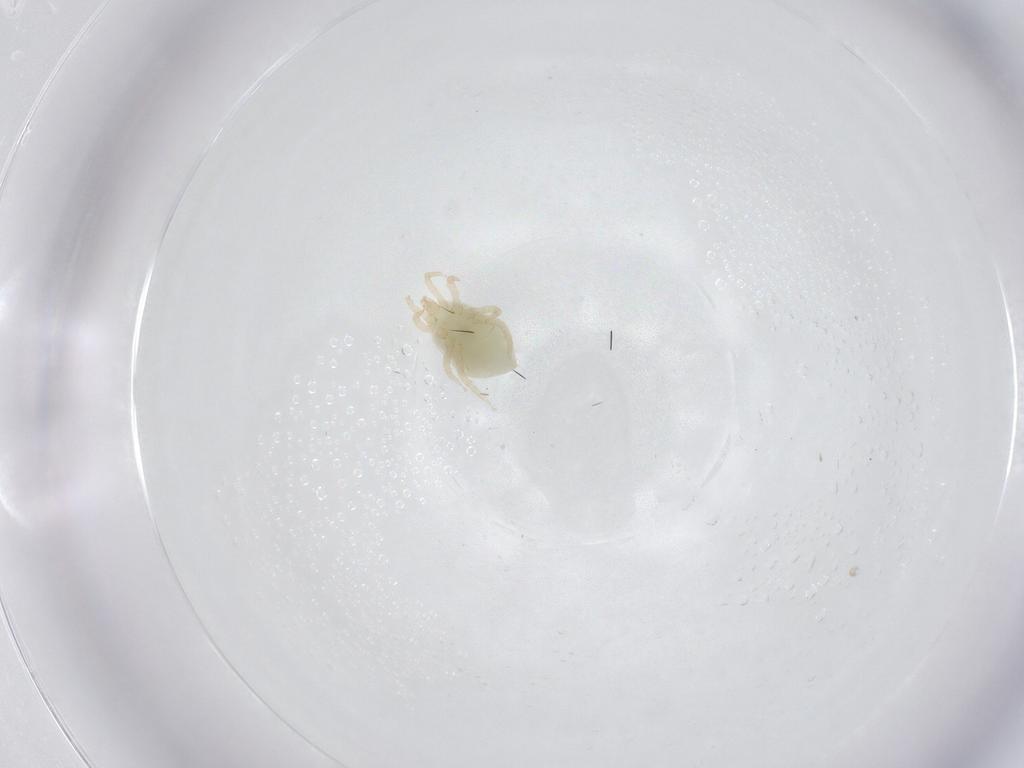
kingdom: Animalia
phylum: Arthropoda
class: Arachnida
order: Mesostigmata
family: Melicharidae
